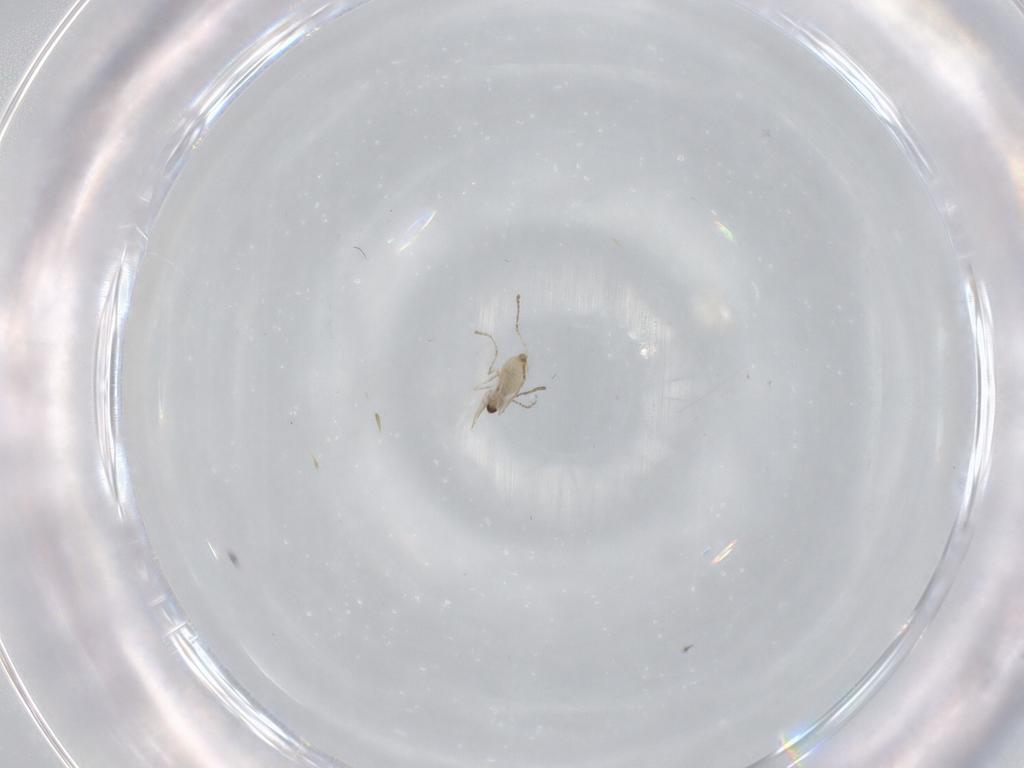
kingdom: Animalia
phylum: Arthropoda
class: Insecta
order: Diptera
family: Cecidomyiidae
